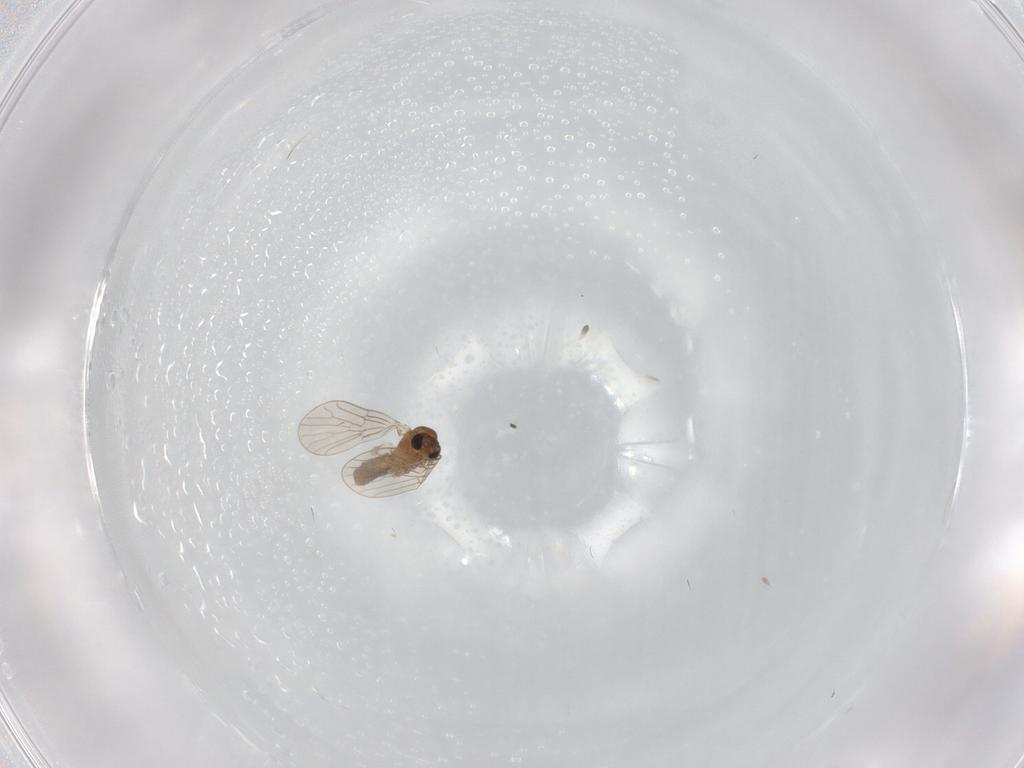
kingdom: Animalia
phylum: Arthropoda
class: Insecta
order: Diptera
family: Psychodidae
